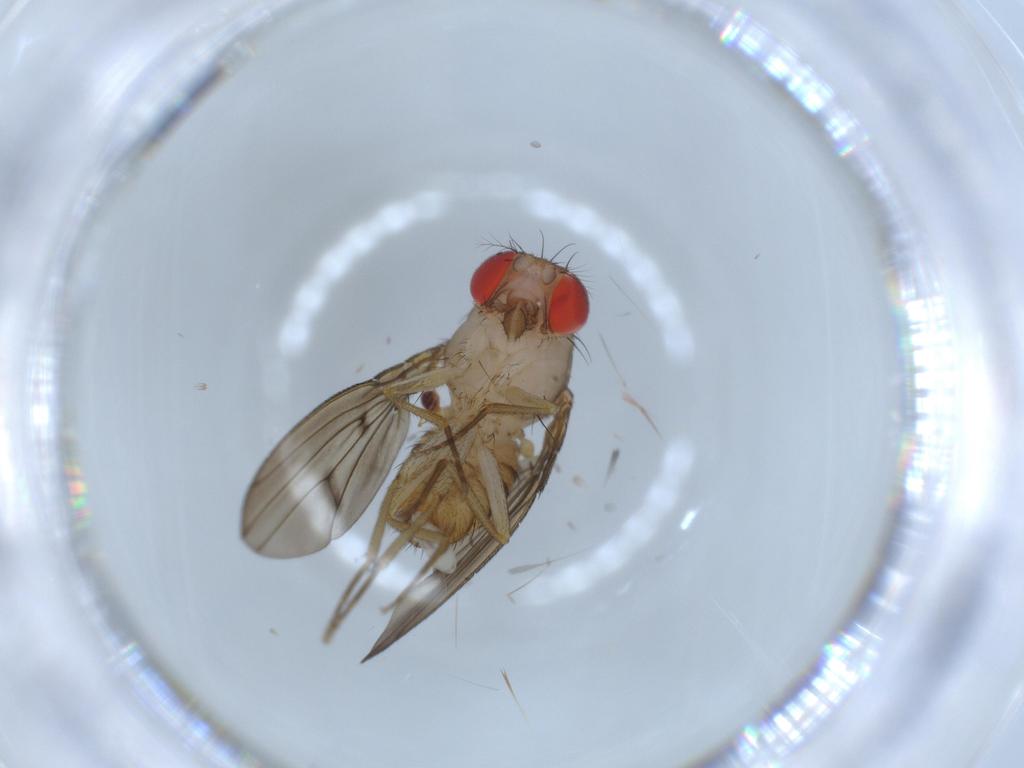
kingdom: Animalia
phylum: Arthropoda
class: Insecta
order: Diptera
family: Drosophilidae
